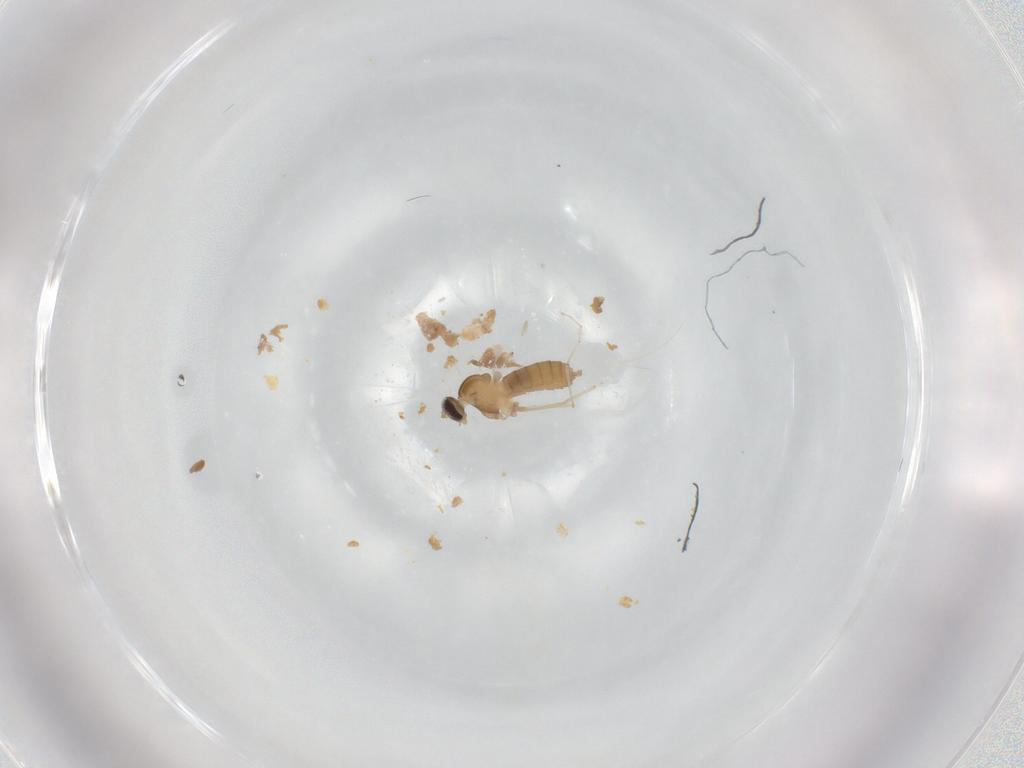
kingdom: Animalia
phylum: Arthropoda
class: Insecta
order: Diptera
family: Cecidomyiidae
